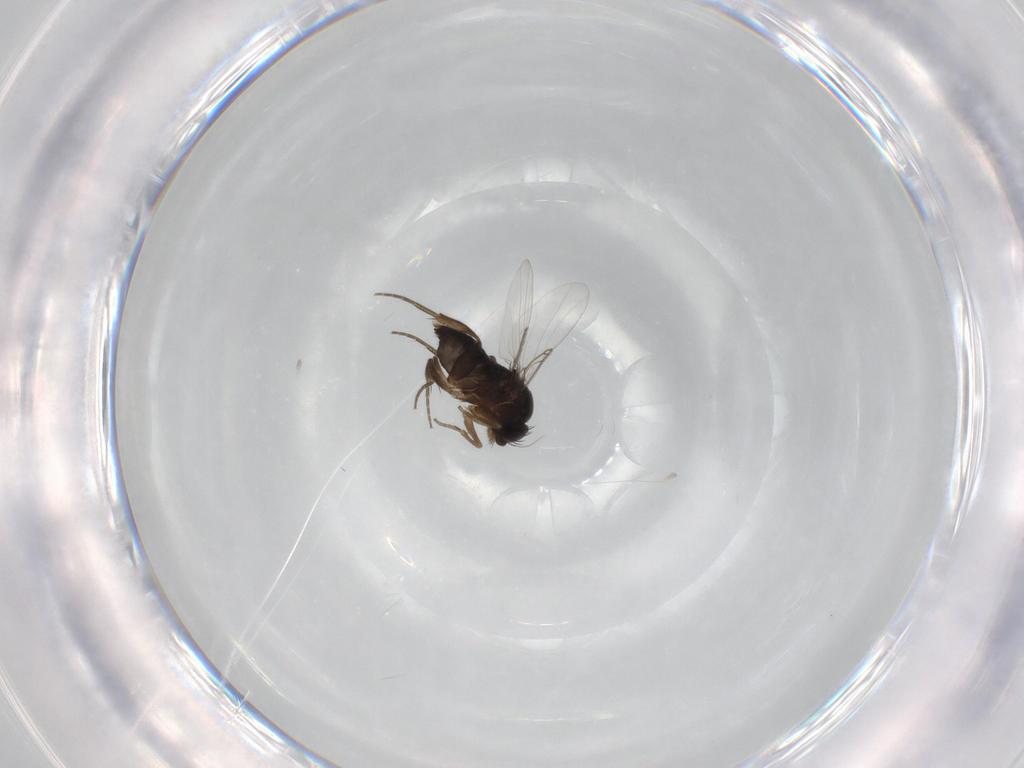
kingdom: Animalia
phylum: Arthropoda
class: Insecta
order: Diptera
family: Phoridae
